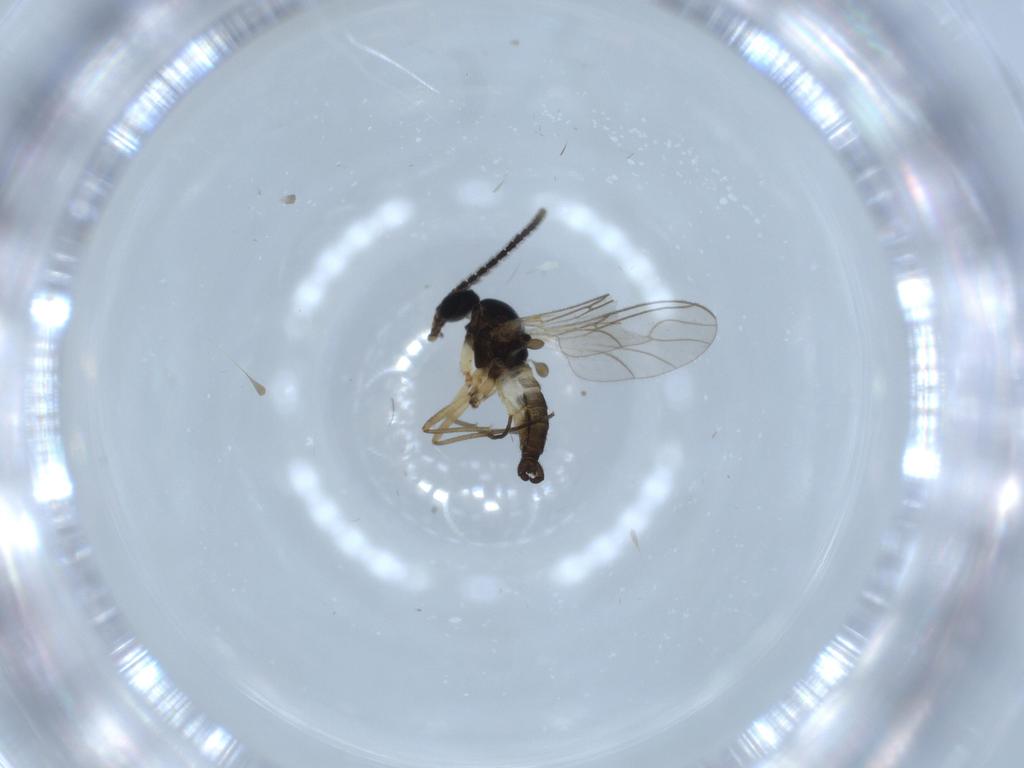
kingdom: Animalia
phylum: Arthropoda
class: Insecta
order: Diptera
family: Sciaridae
